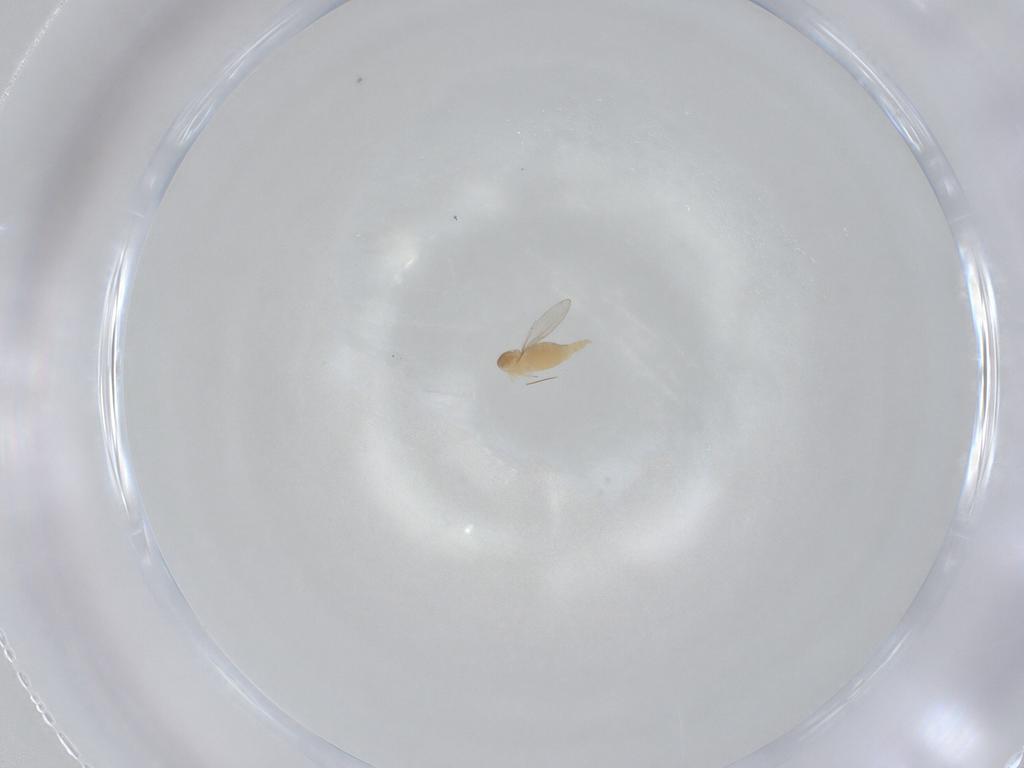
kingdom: Animalia
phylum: Arthropoda
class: Insecta
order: Diptera
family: Cecidomyiidae
